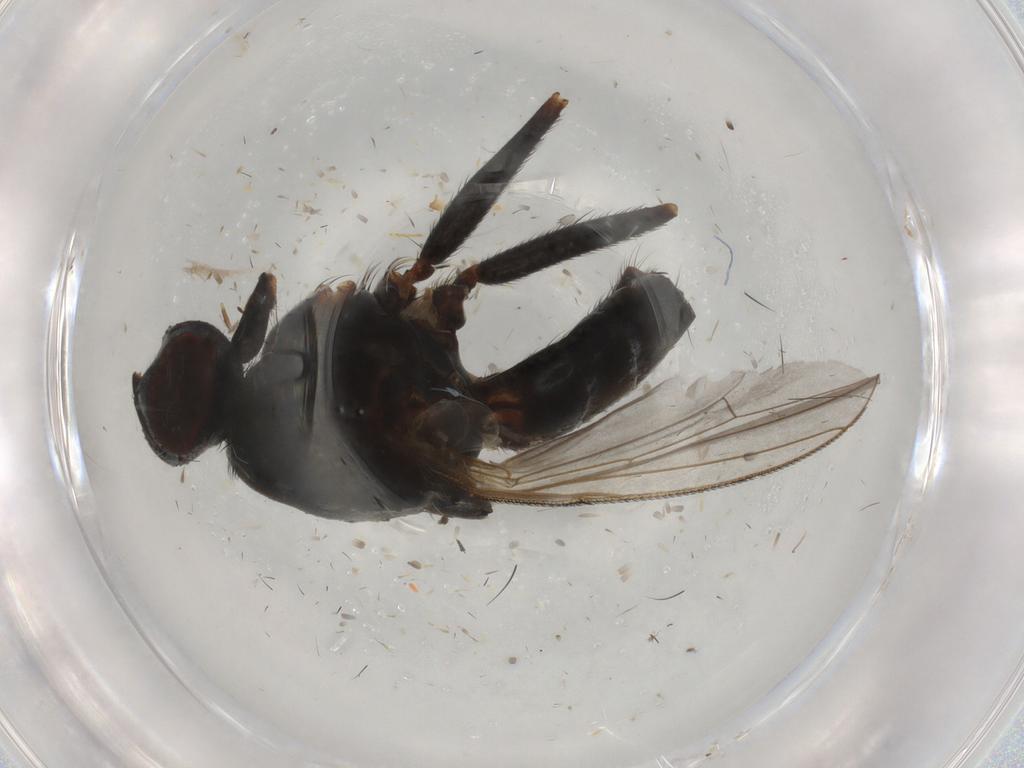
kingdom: Animalia
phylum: Arthropoda
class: Insecta
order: Diptera
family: Muscidae
